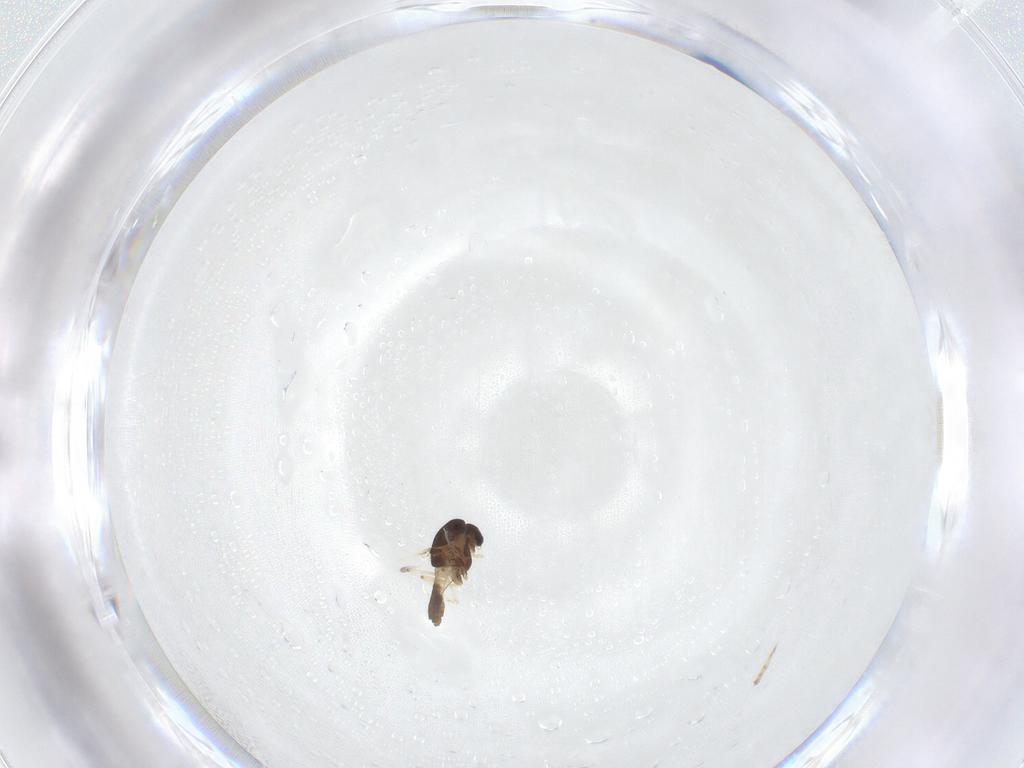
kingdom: Animalia
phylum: Arthropoda
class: Insecta
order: Diptera
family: Chironomidae
